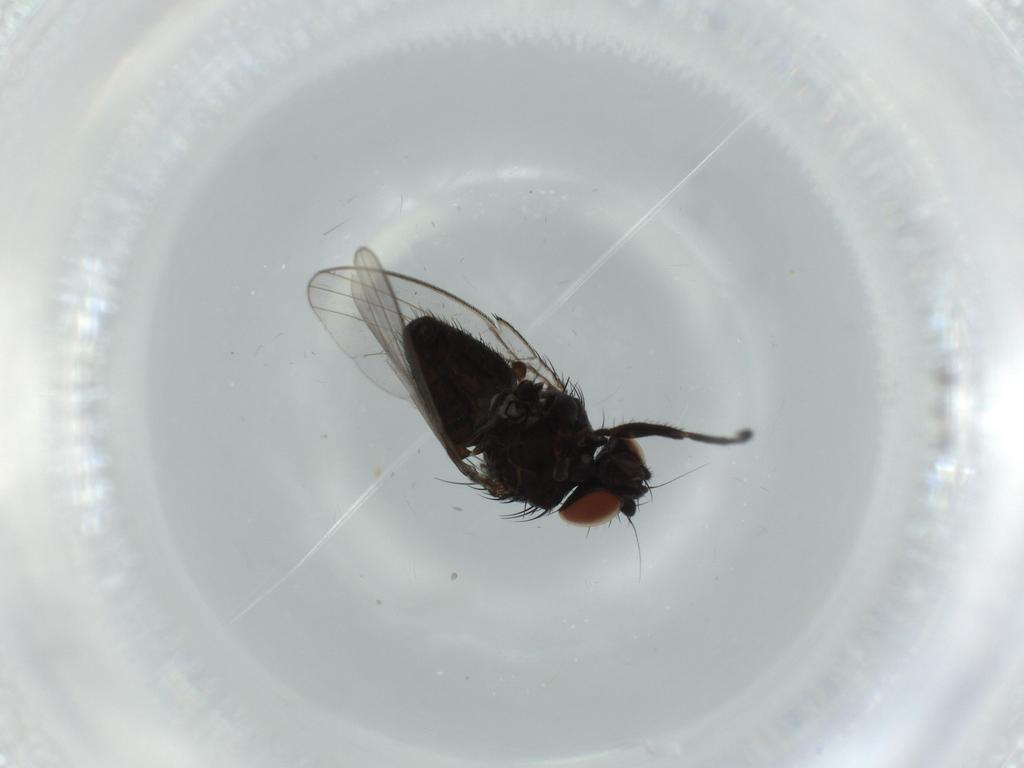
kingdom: Animalia
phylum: Arthropoda
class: Insecta
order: Diptera
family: Milichiidae
